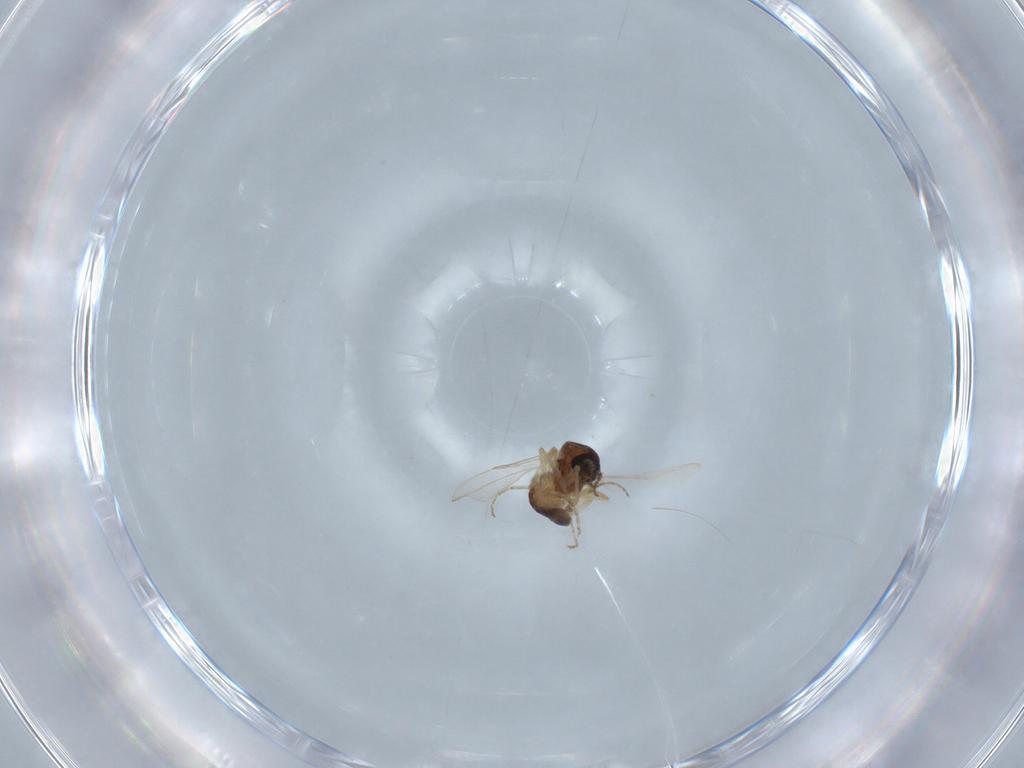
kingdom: Animalia
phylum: Arthropoda
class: Insecta
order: Diptera
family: Ceratopogonidae
